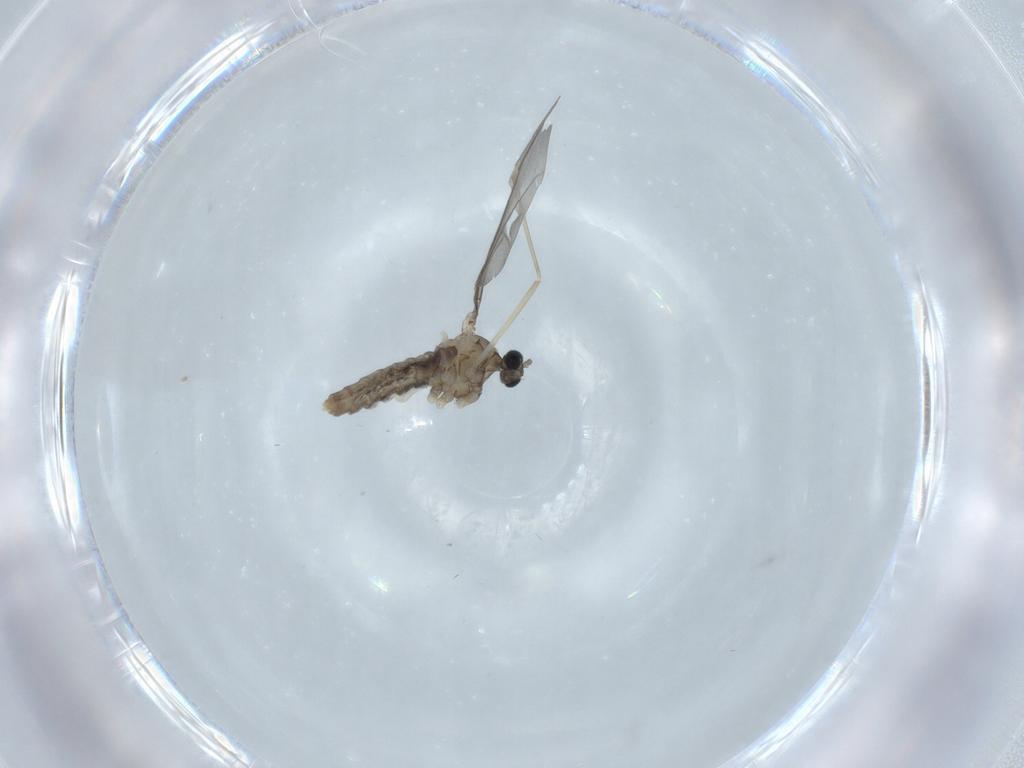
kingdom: Animalia
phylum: Arthropoda
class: Insecta
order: Diptera
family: Cecidomyiidae
